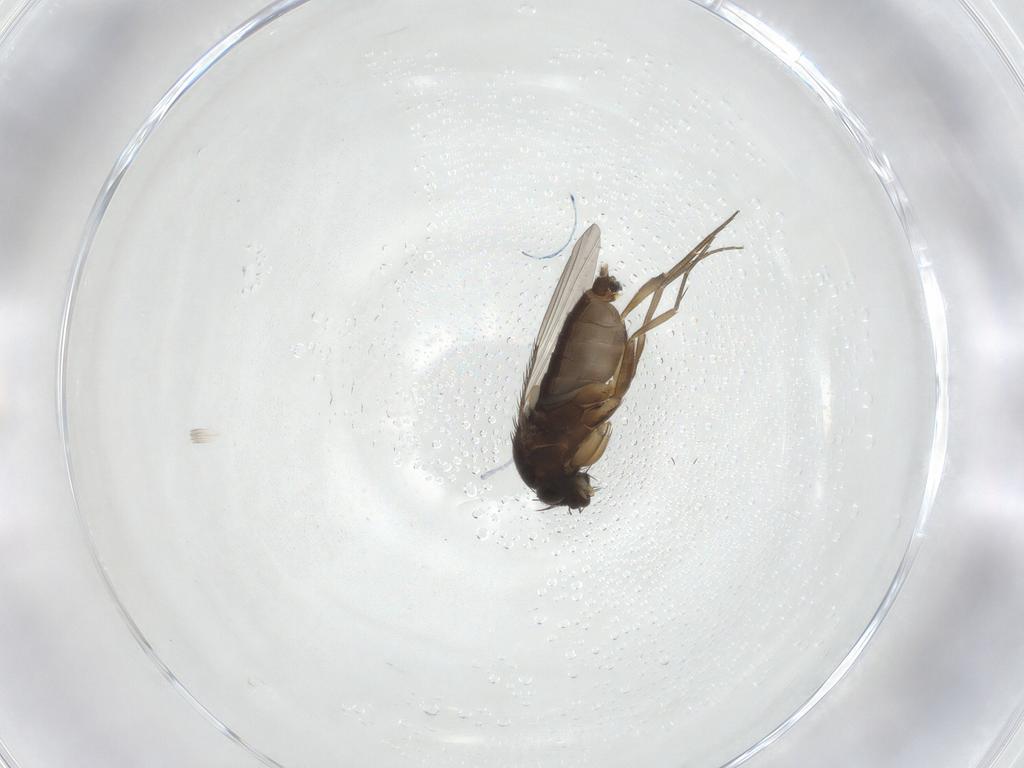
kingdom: Animalia
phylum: Arthropoda
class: Insecta
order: Diptera
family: Phoridae
